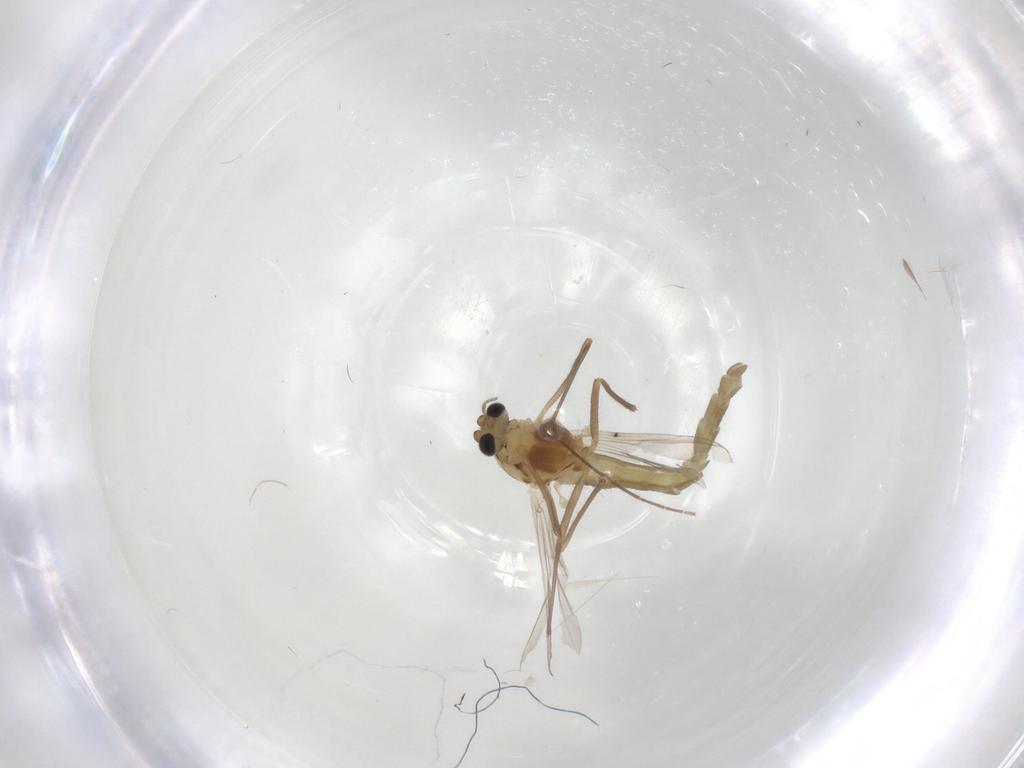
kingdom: Animalia
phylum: Arthropoda
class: Insecta
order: Diptera
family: Chironomidae
